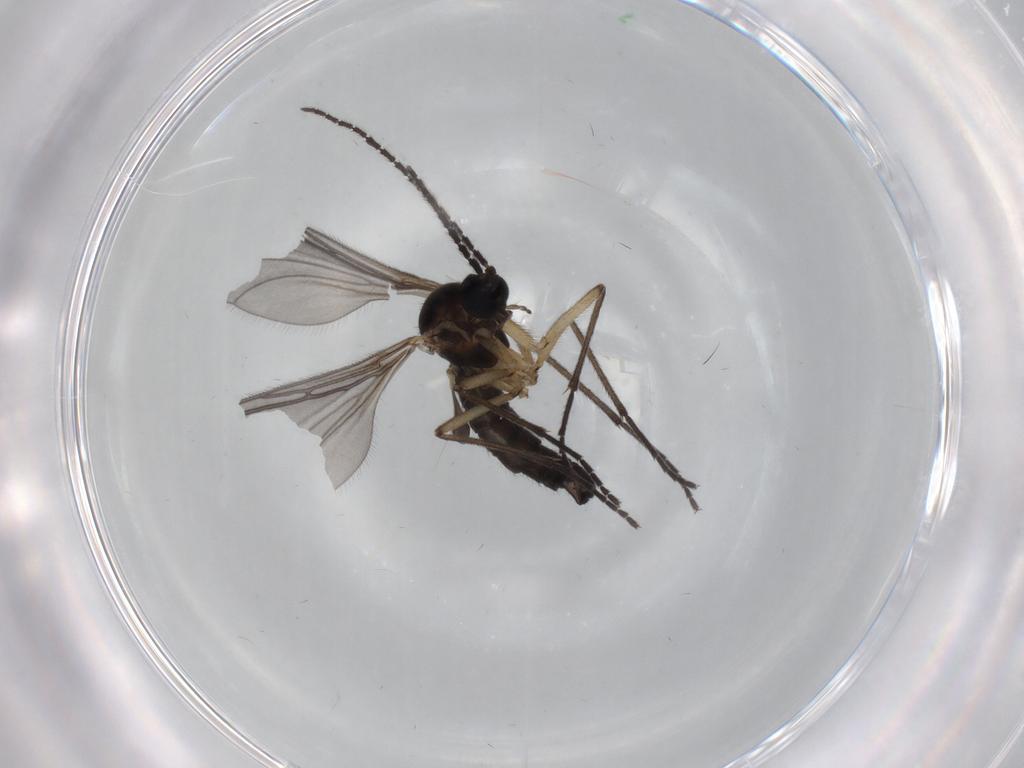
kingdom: Animalia
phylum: Arthropoda
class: Insecta
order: Diptera
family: Sciaridae
